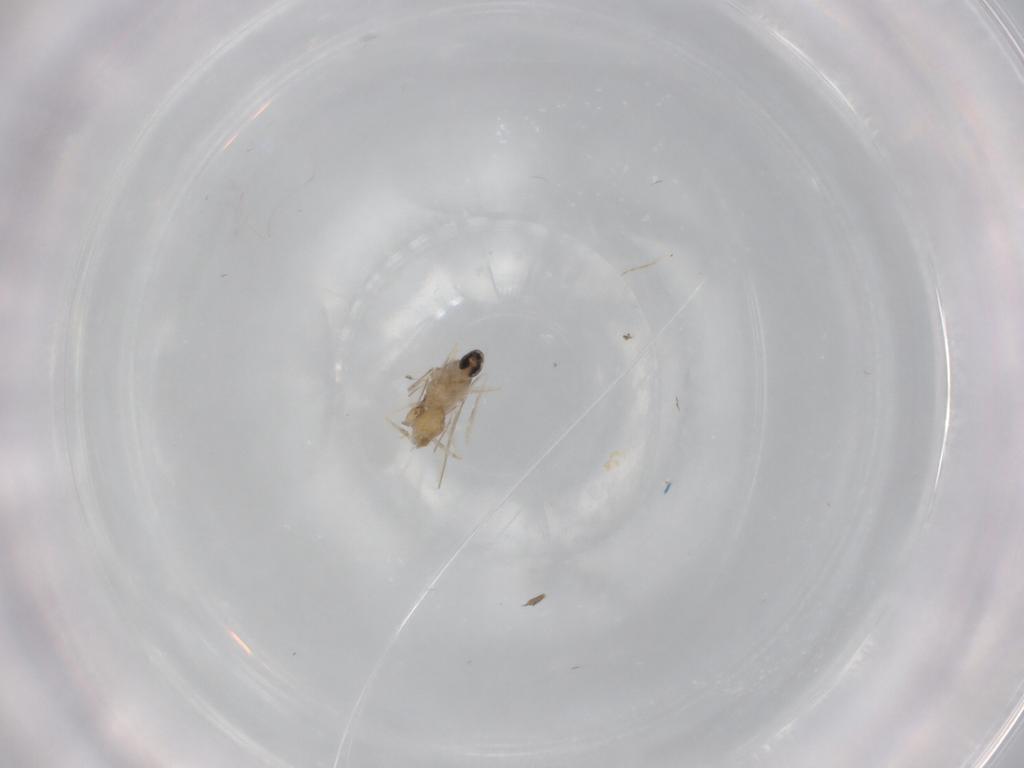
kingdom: Animalia
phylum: Arthropoda
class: Insecta
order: Diptera
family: Cecidomyiidae
